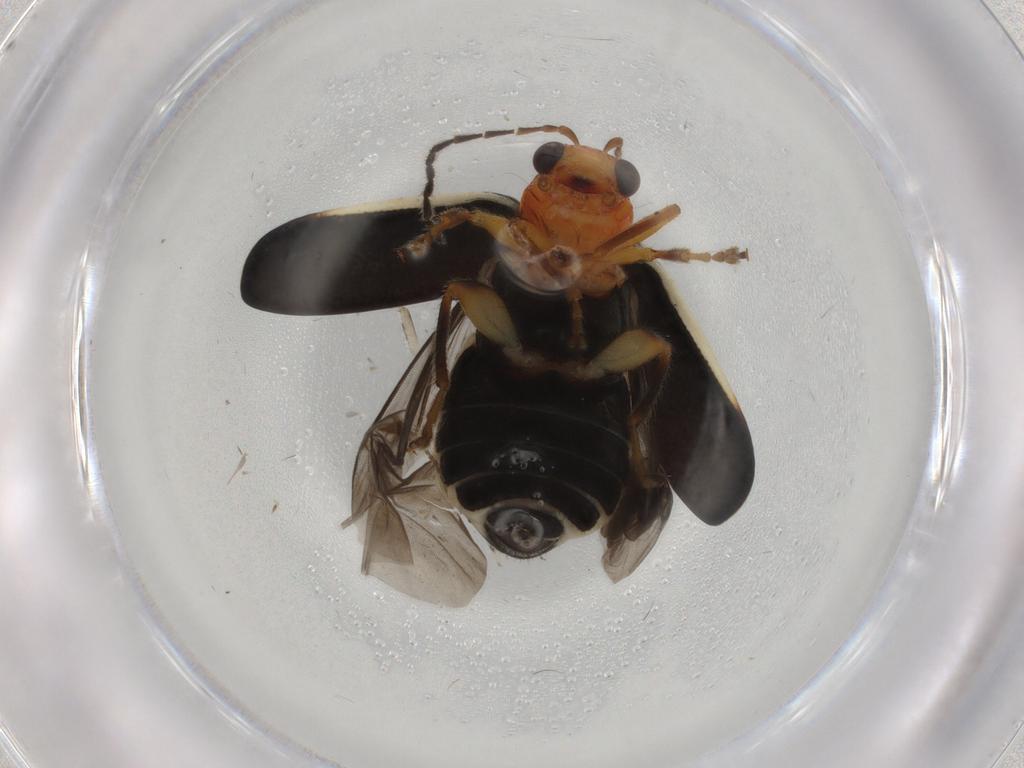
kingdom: Animalia
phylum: Arthropoda
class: Insecta
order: Coleoptera
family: Chrysomelidae
